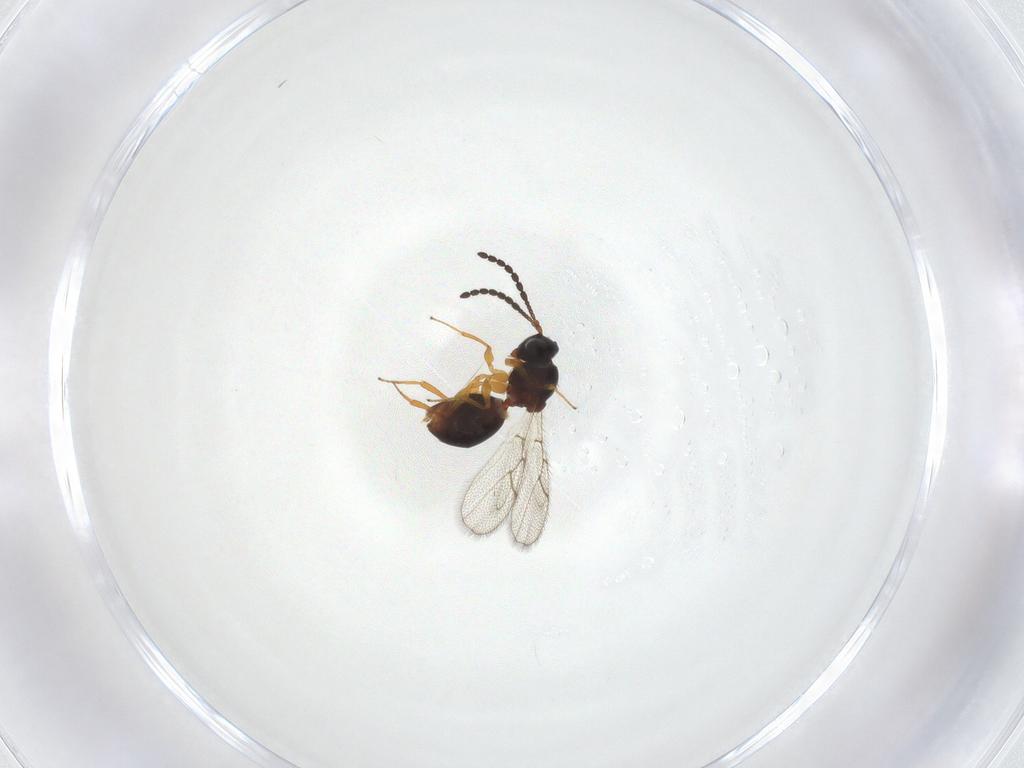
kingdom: Animalia
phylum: Arthropoda
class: Insecta
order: Hymenoptera
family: Figitidae
